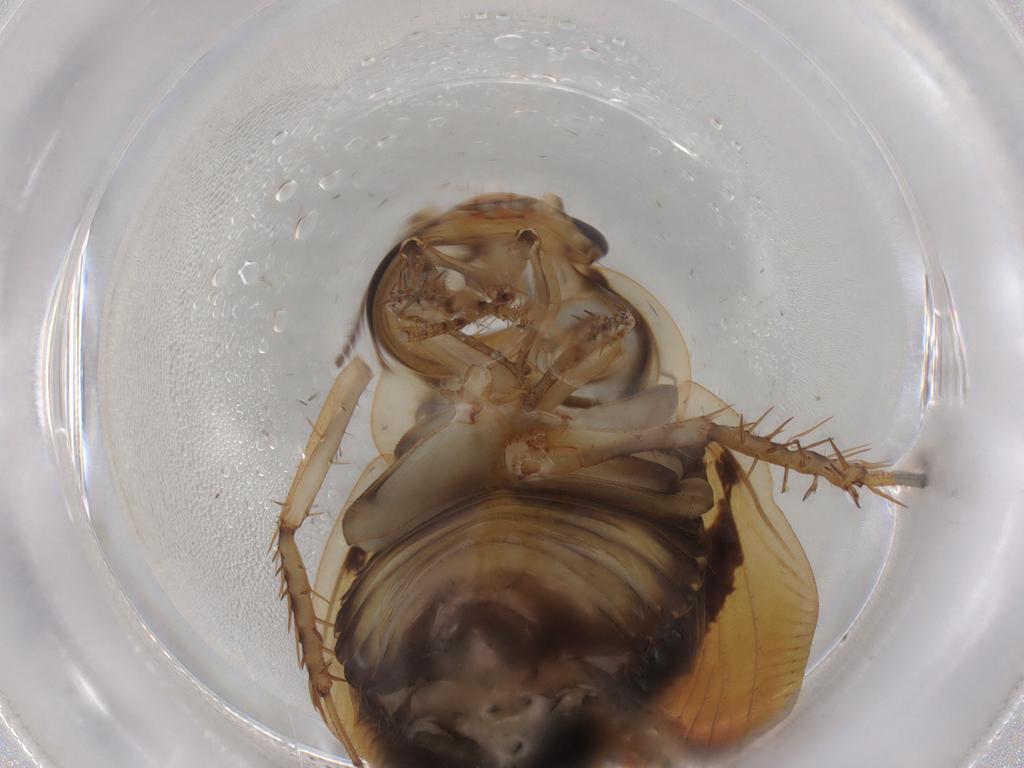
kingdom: Animalia
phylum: Arthropoda
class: Insecta
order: Blattodea
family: Ectobiidae
